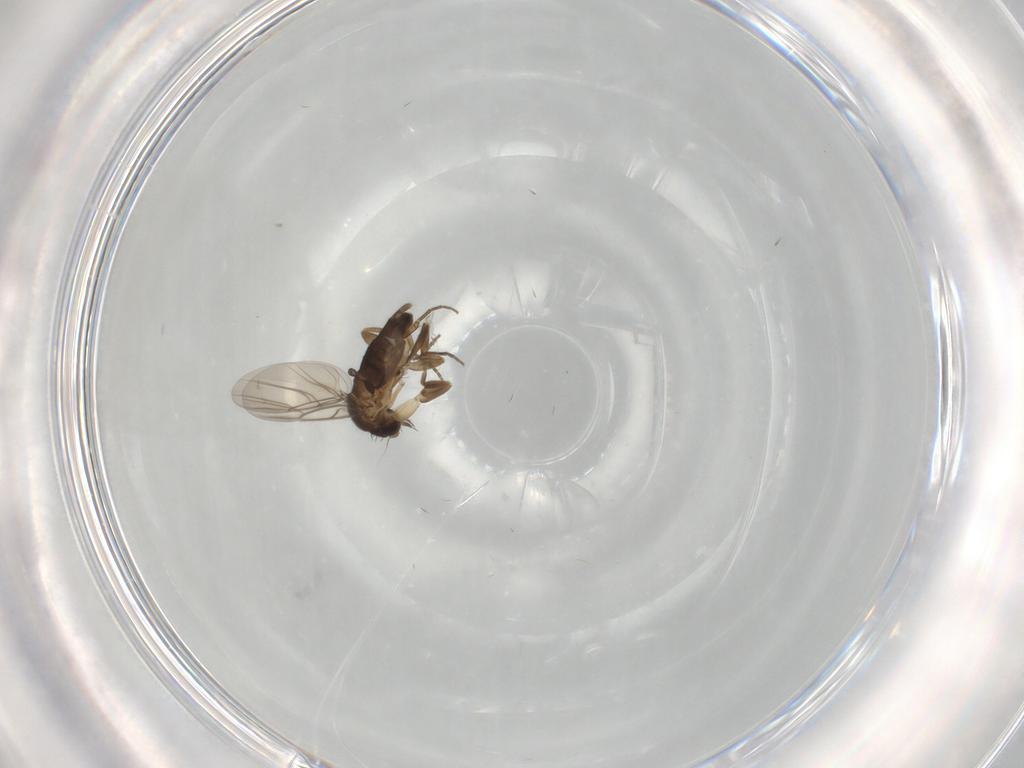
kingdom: Animalia
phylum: Arthropoda
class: Insecta
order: Diptera
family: Phoridae
